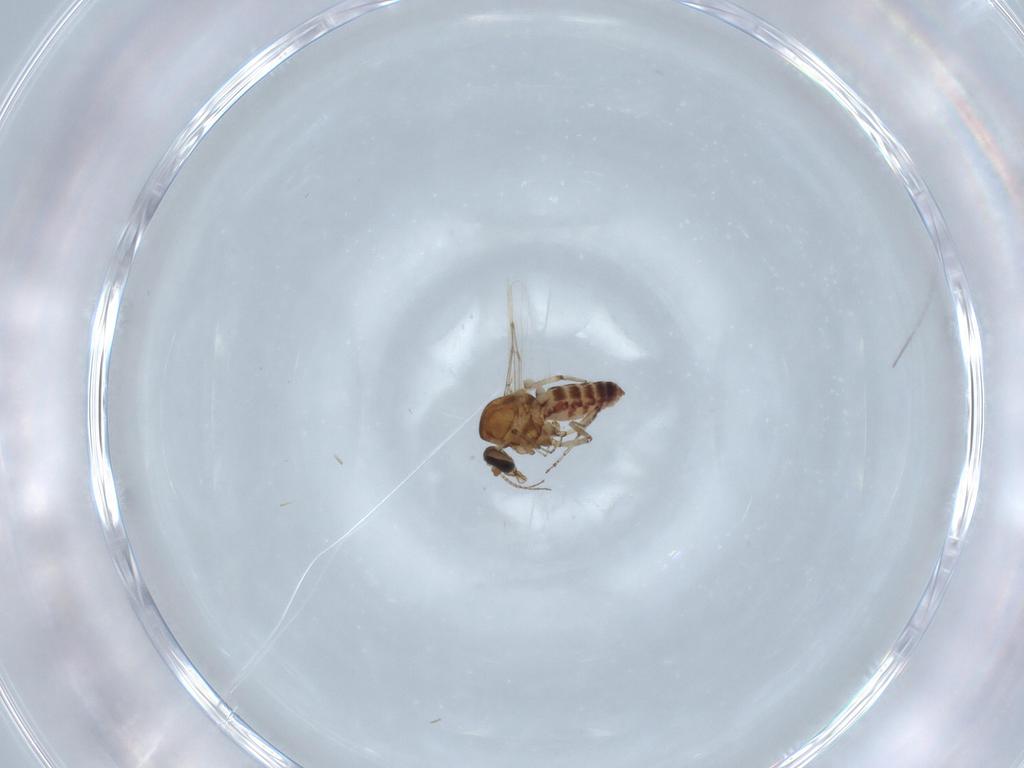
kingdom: Animalia
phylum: Arthropoda
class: Insecta
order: Diptera
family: Ceratopogonidae
